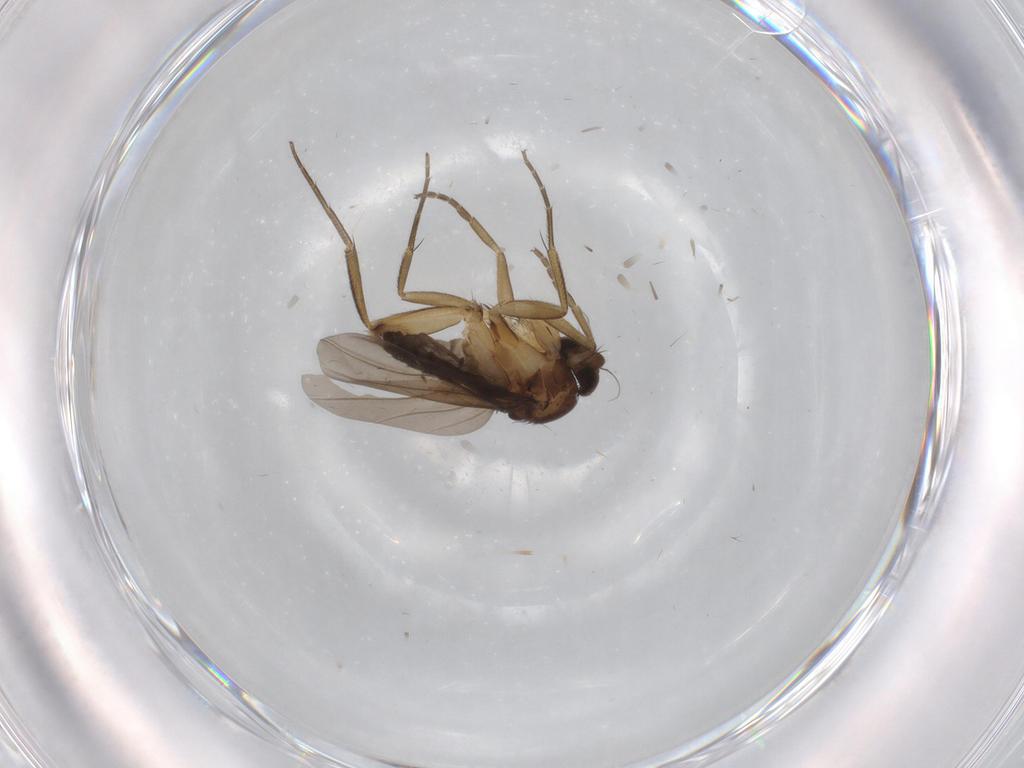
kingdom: Animalia
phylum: Arthropoda
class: Insecta
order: Diptera
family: Phoridae
